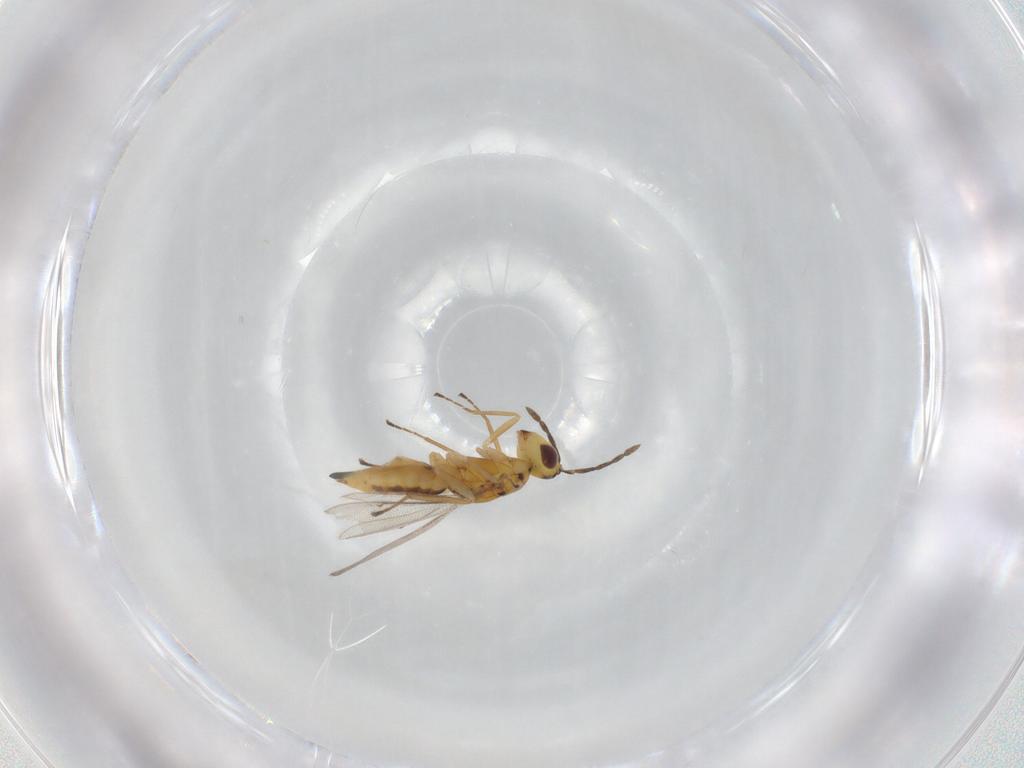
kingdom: Animalia
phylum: Arthropoda
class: Insecta
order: Hymenoptera
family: Eulophidae
